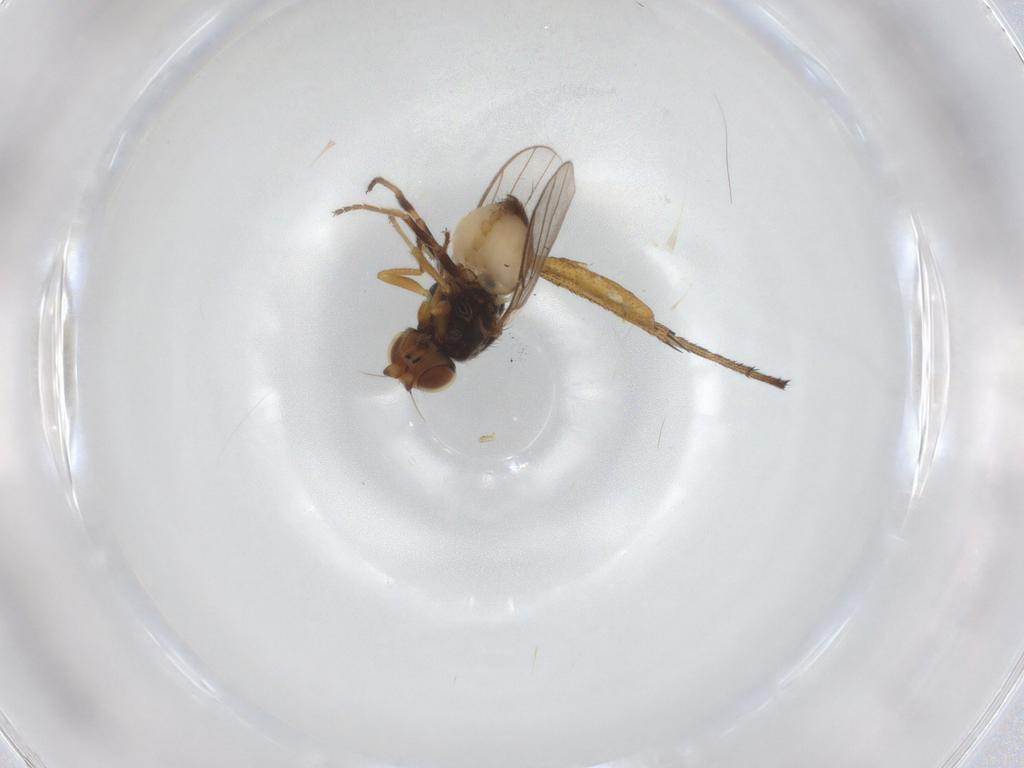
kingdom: Animalia
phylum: Arthropoda
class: Insecta
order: Diptera
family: Chloropidae
